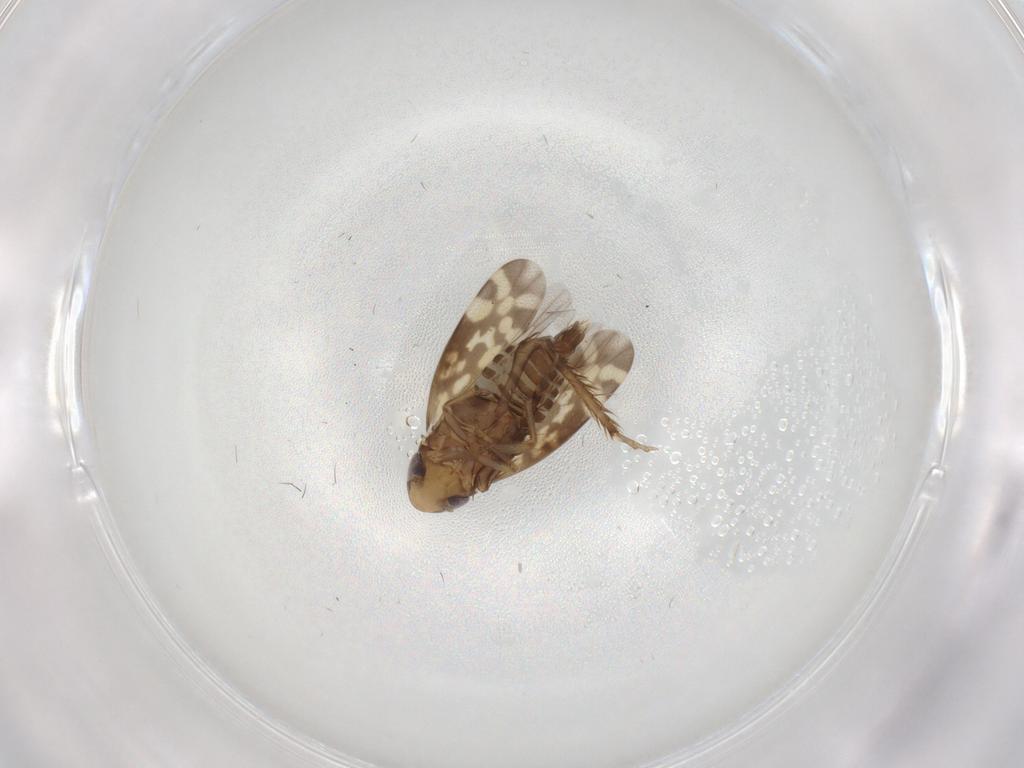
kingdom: Animalia
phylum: Arthropoda
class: Insecta
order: Hemiptera
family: Cicadellidae
